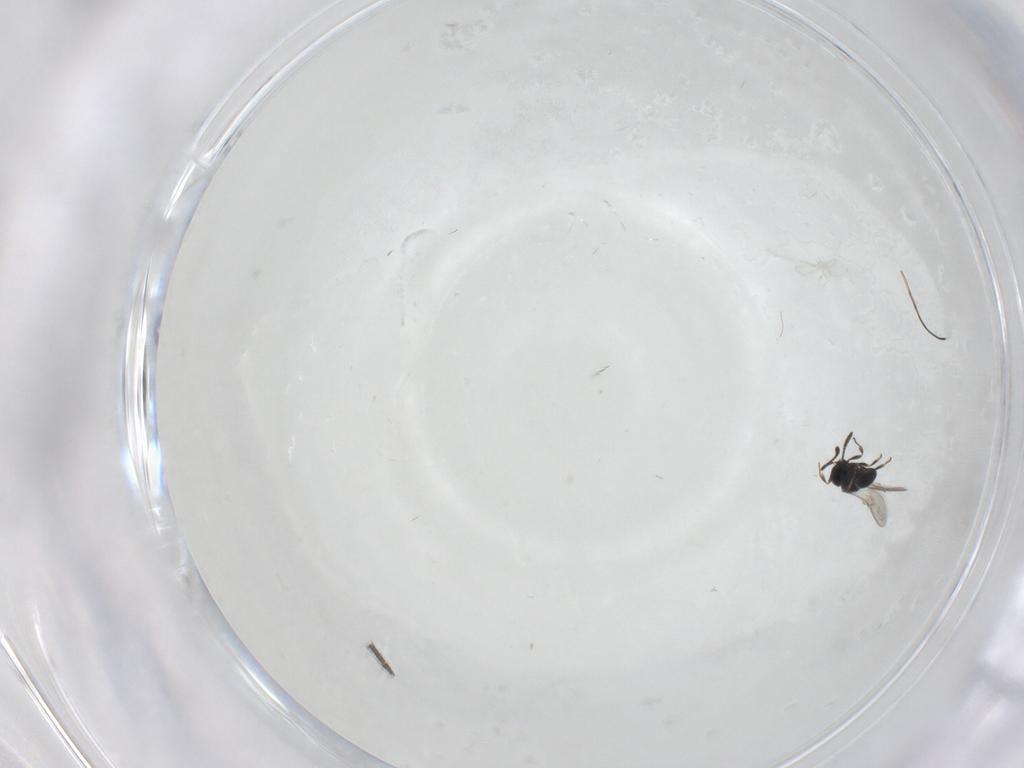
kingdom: Animalia
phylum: Arthropoda
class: Insecta
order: Hymenoptera
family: Scelionidae
